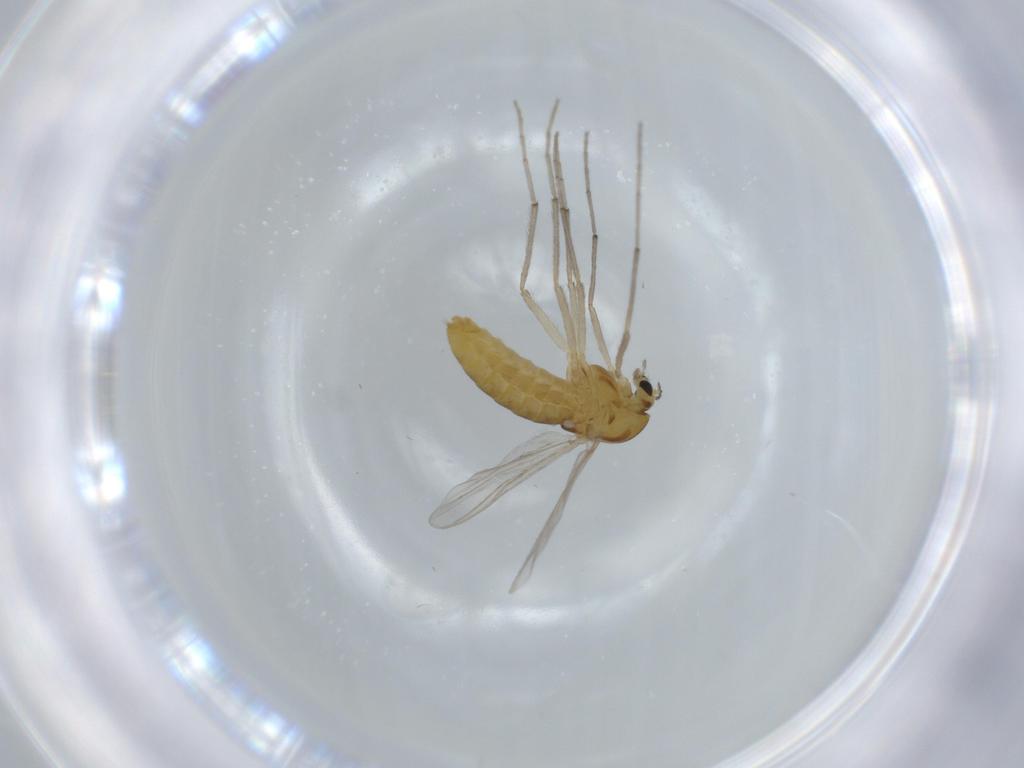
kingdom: Animalia
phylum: Arthropoda
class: Insecta
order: Diptera
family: Chironomidae
